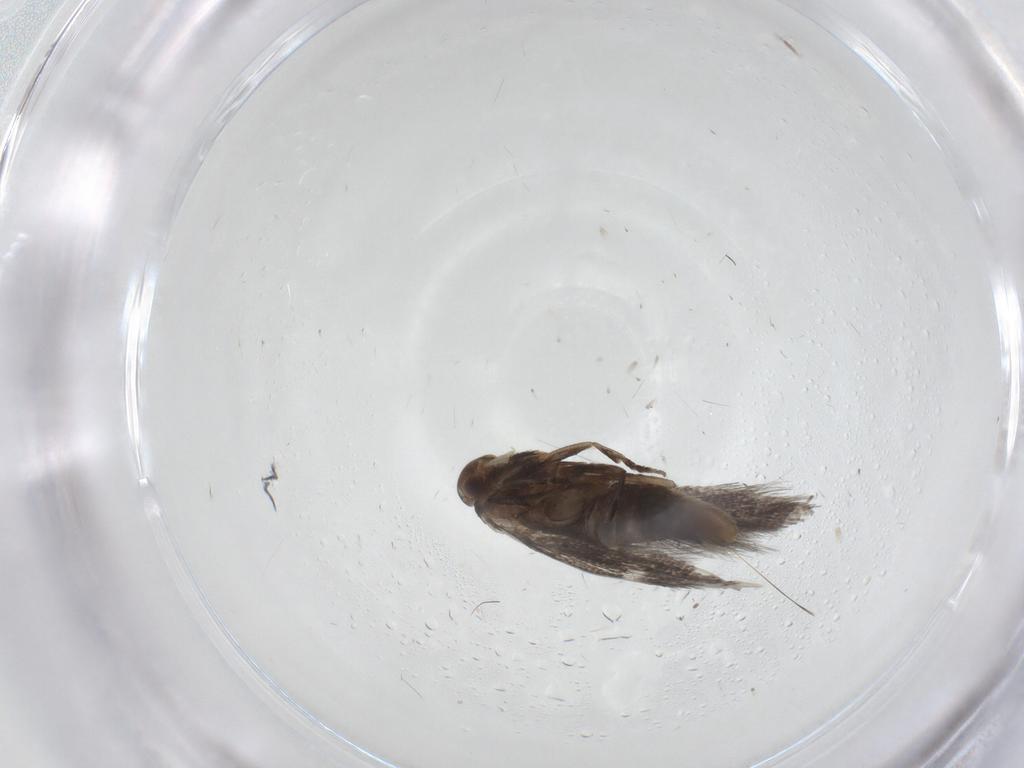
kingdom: Animalia
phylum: Arthropoda
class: Insecta
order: Lepidoptera
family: Elachistidae
